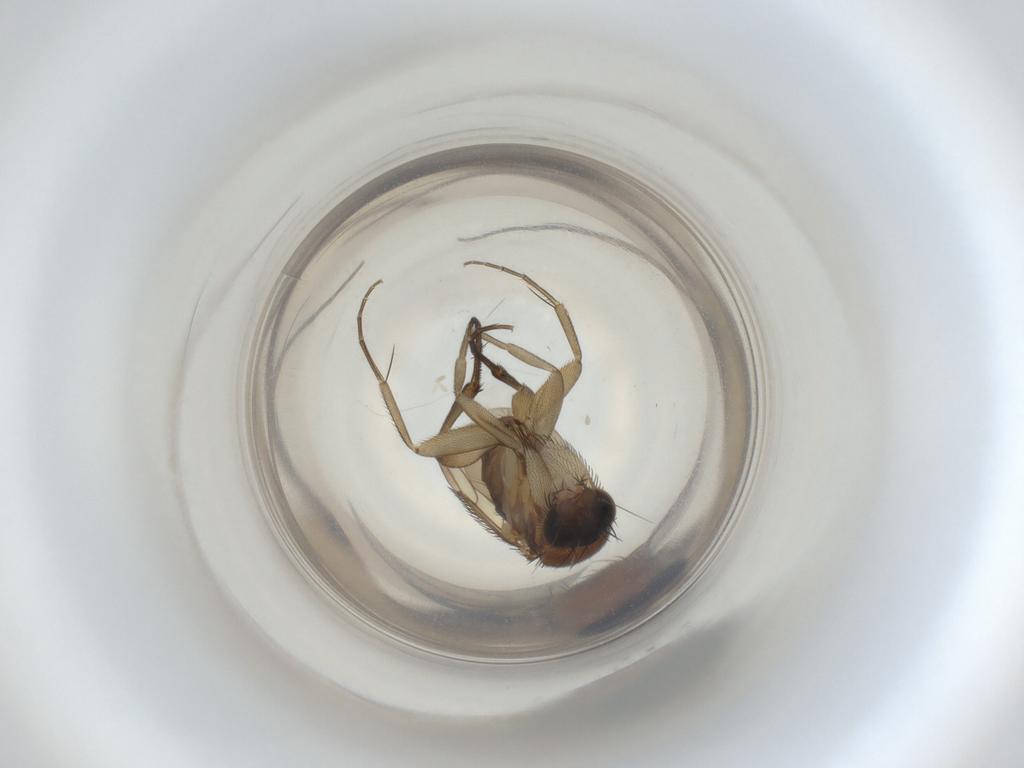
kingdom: Animalia
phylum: Arthropoda
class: Insecta
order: Diptera
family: Phoridae
